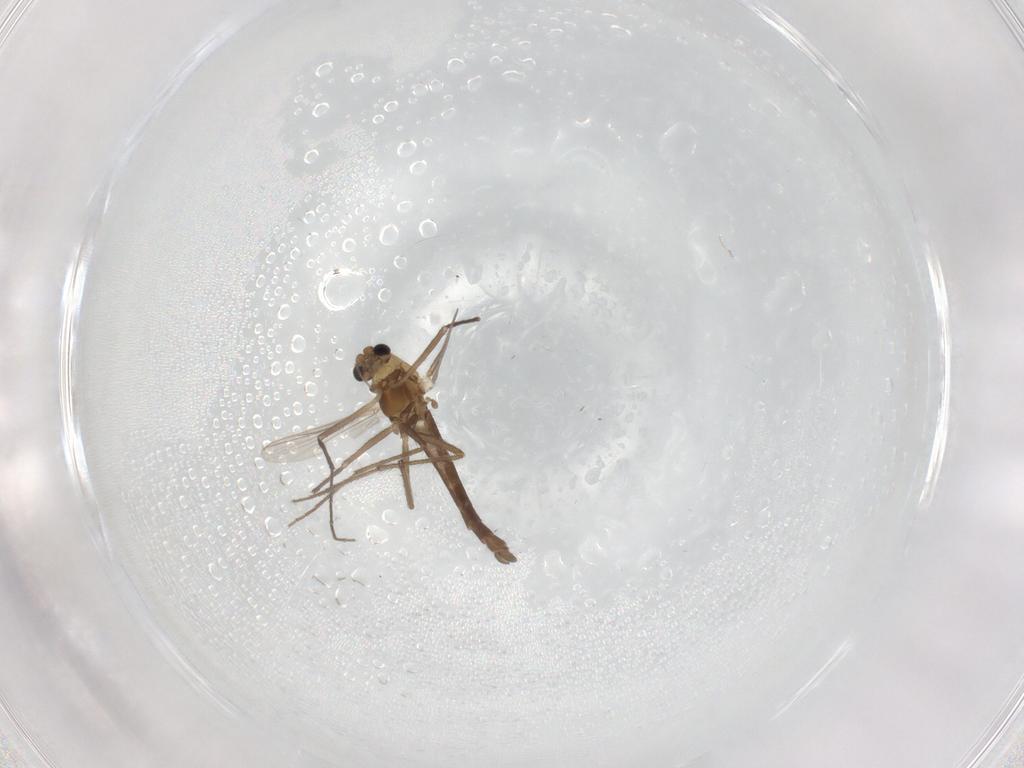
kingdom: Animalia
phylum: Arthropoda
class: Insecta
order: Diptera
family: Chironomidae
